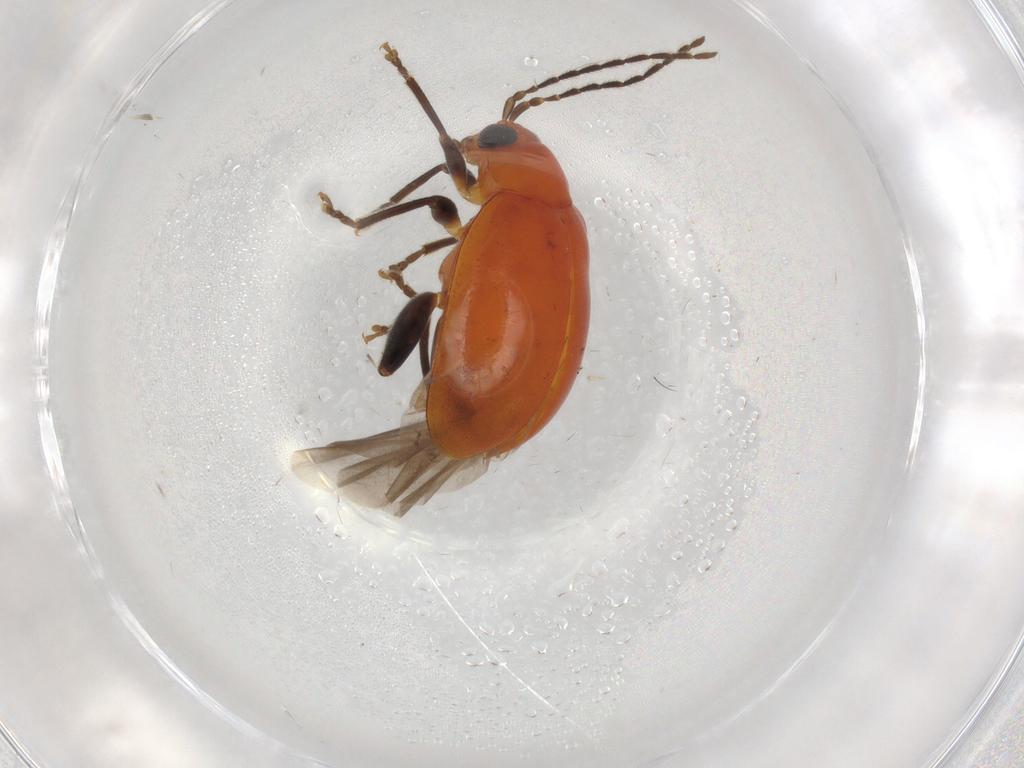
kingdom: Animalia
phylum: Arthropoda
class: Insecta
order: Coleoptera
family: Chrysomelidae
